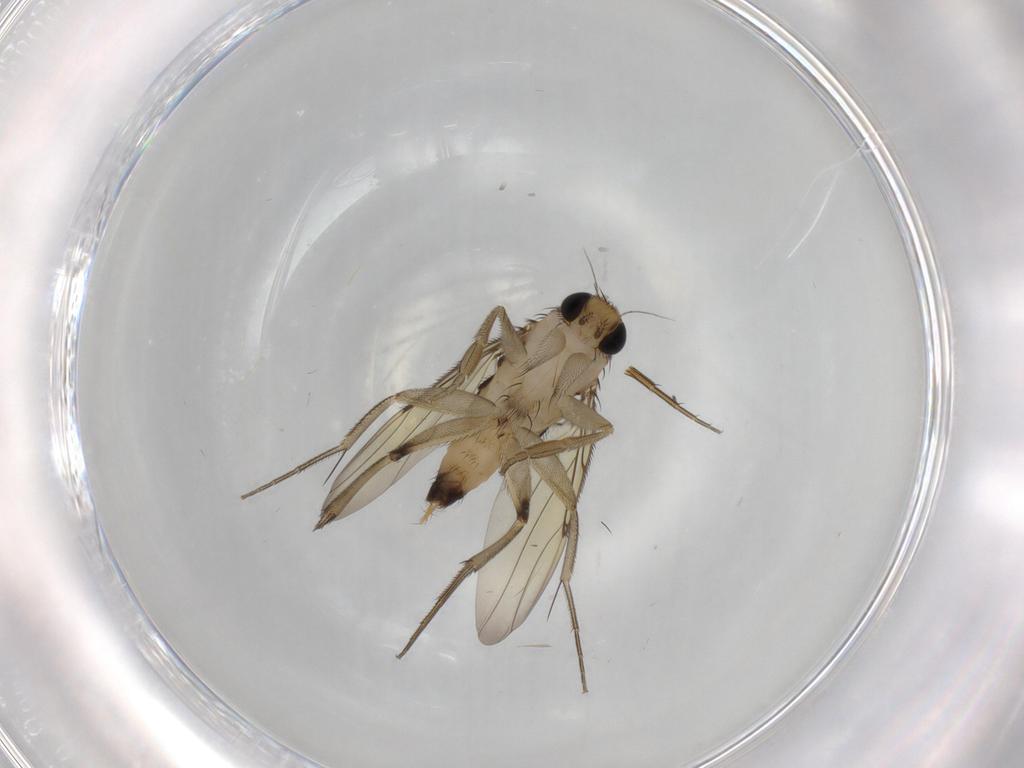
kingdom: Animalia
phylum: Arthropoda
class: Insecta
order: Diptera
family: Phoridae
